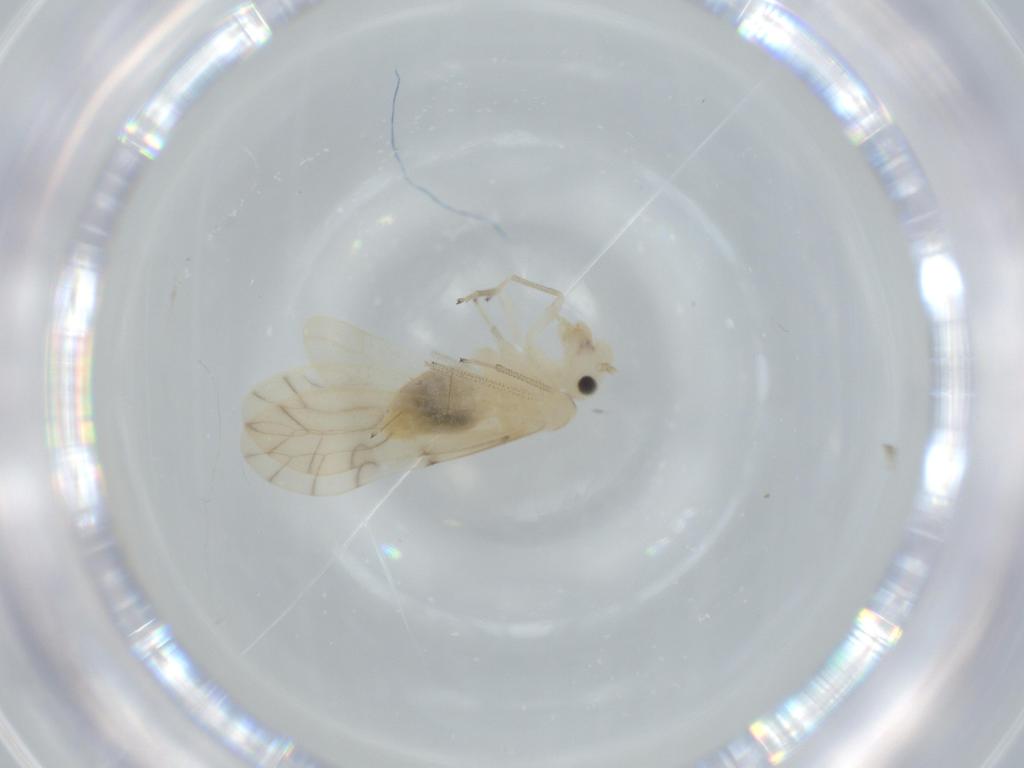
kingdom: Animalia
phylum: Arthropoda
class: Insecta
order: Psocodea
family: Caeciliusidae
